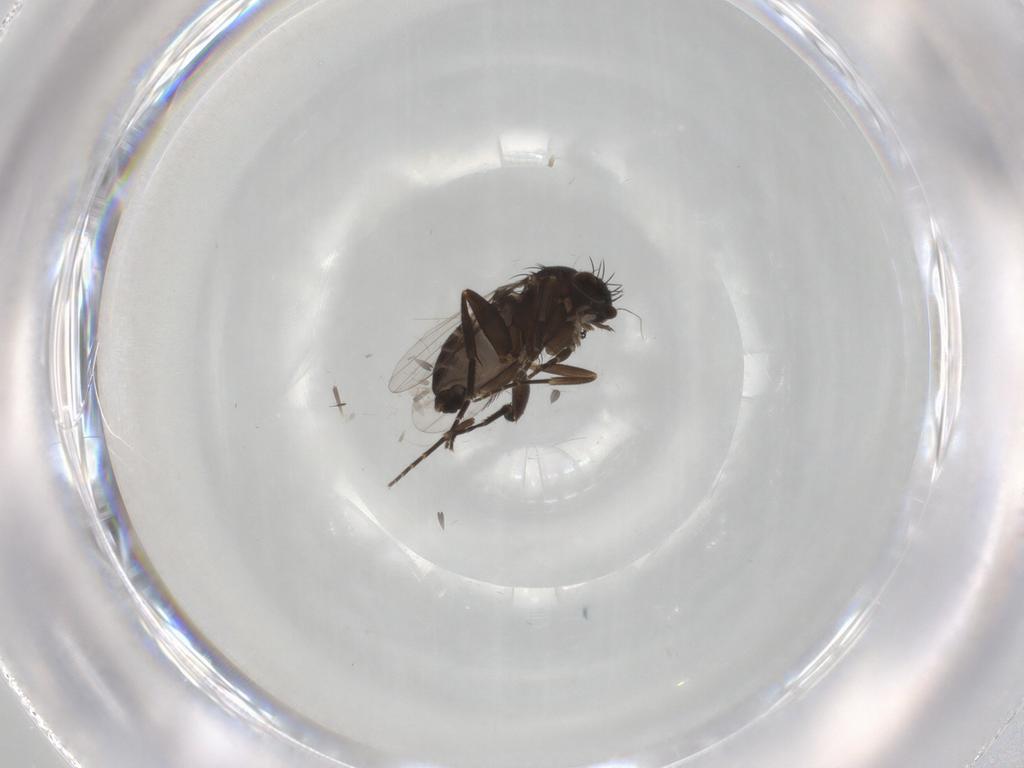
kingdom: Animalia
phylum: Arthropoda
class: Insecta
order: Diptera
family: Phoridae
